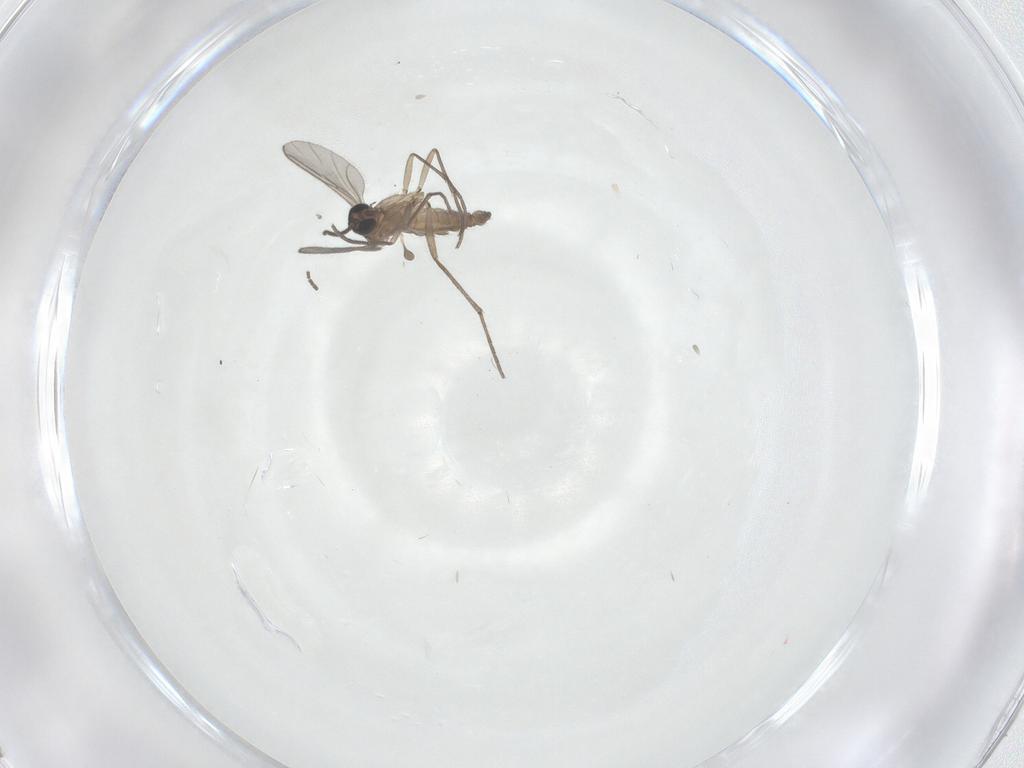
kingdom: Animalia
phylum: Arthropoda
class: Insecta
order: Diptera
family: Sciaridae
